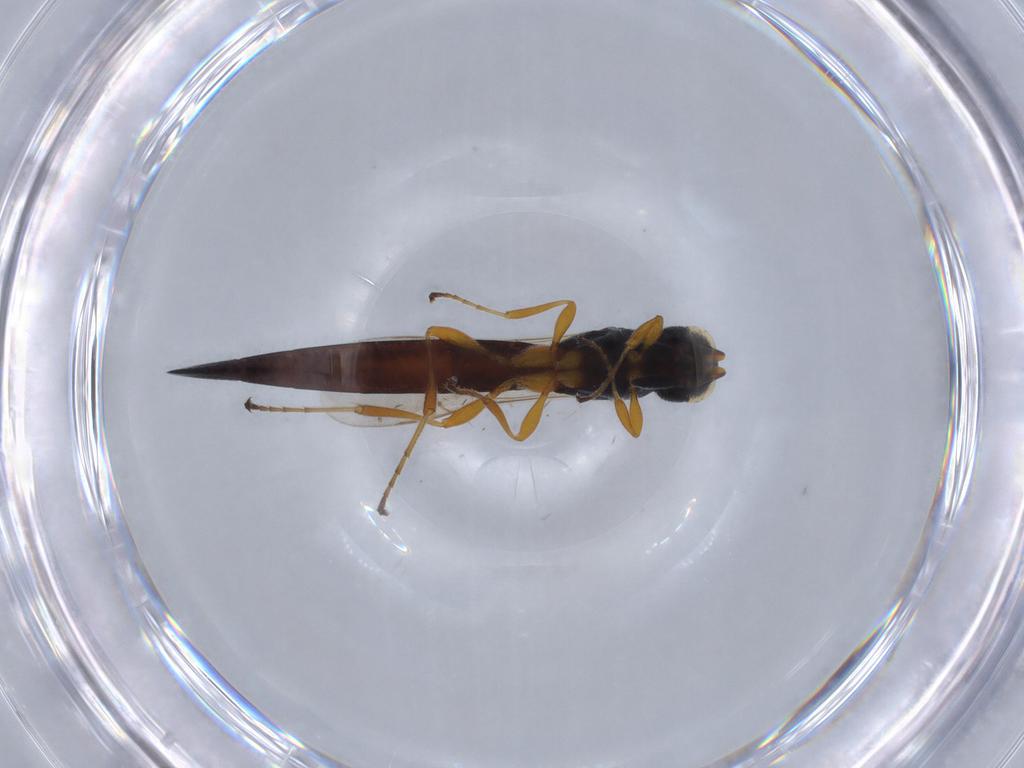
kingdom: Animalia
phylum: Arthropoda
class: Insecta
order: Hymenoptera
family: Scelionidae
